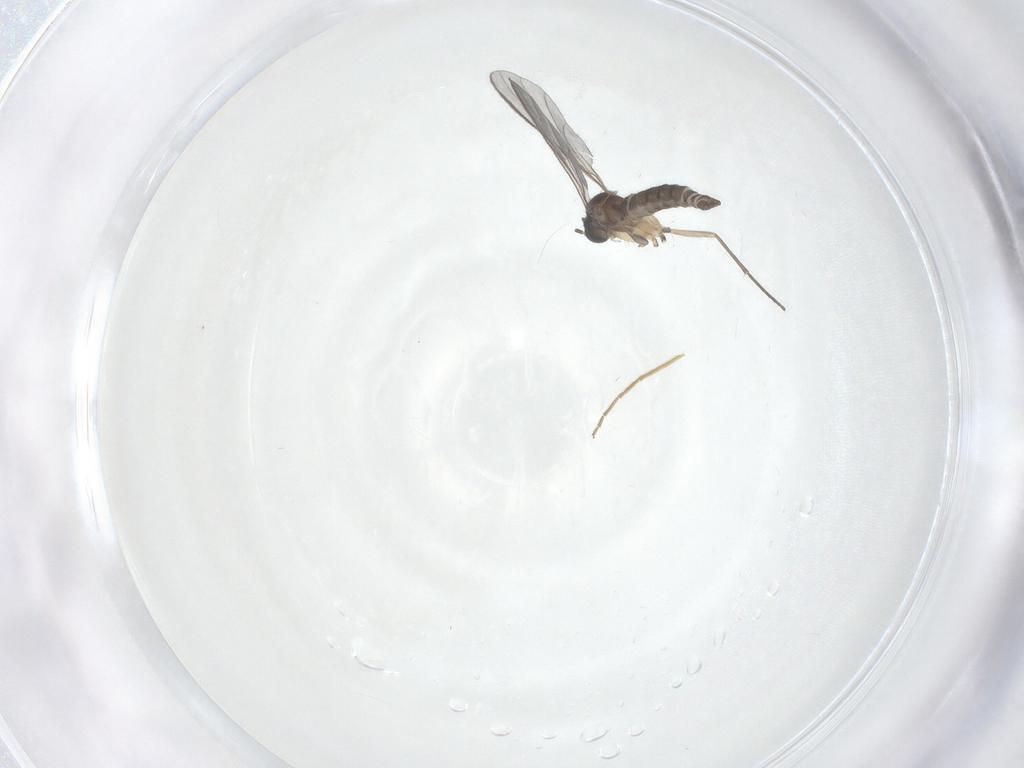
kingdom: Animalia
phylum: Arthropoda
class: Insecta
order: Diptera
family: Sciaridae
